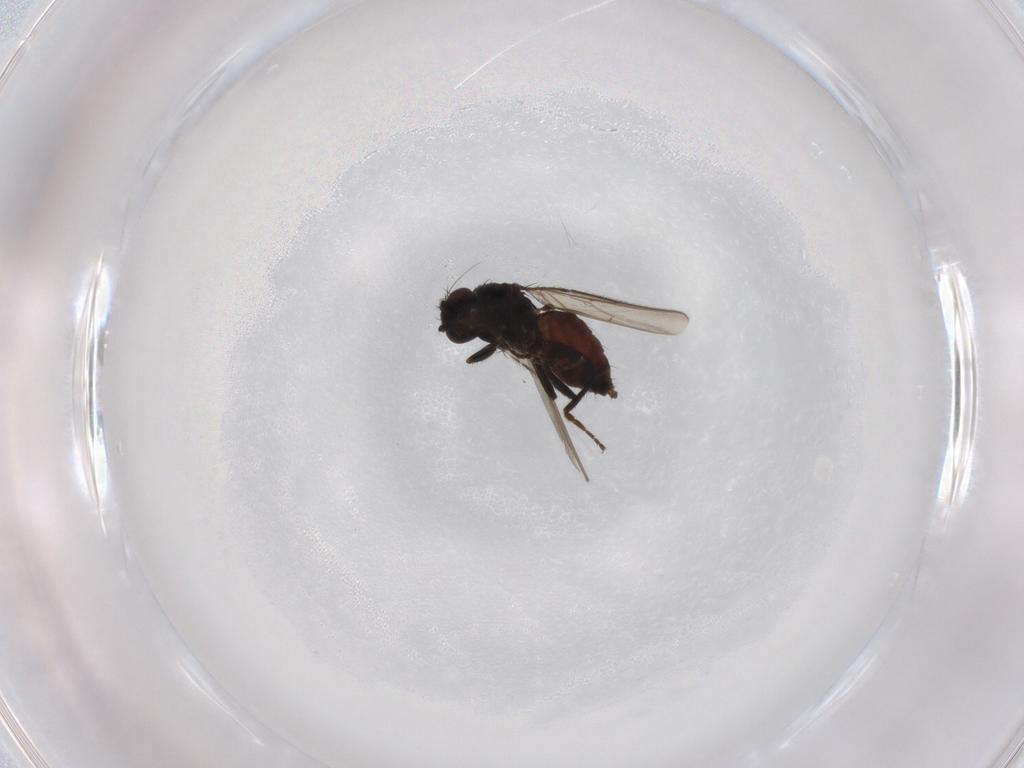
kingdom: Animalia
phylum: Arthropoda
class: Insecta
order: Diptera
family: Sphaeroceridae
